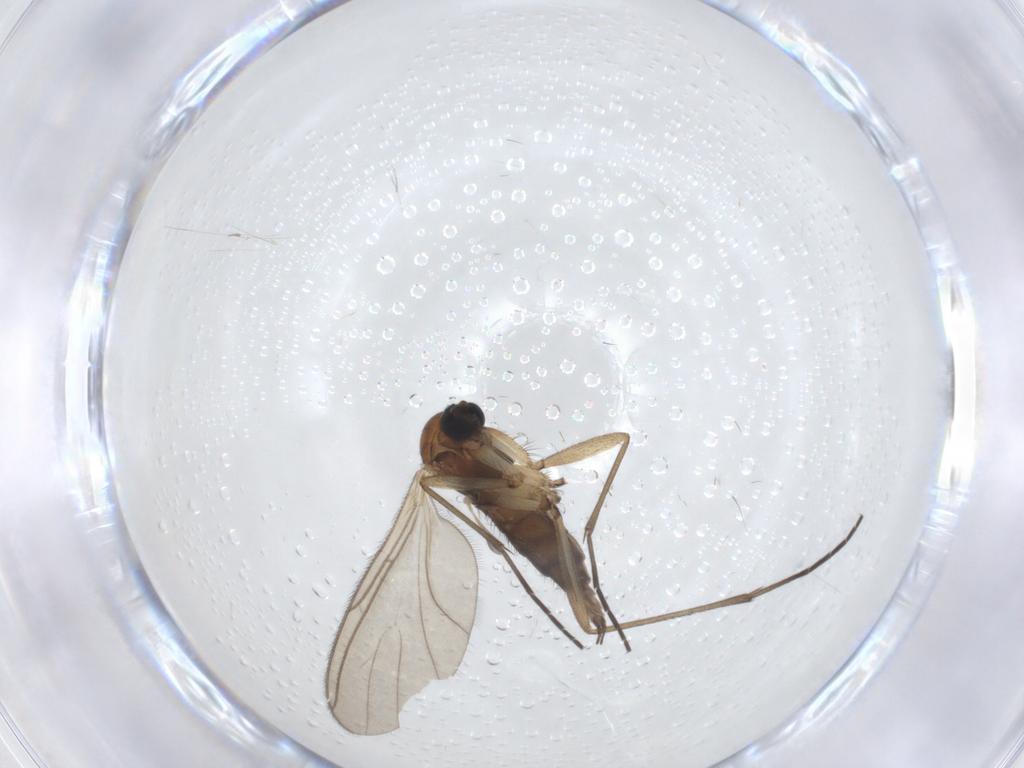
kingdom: Animalia
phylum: Arthropoda
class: Insecta
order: Diptera
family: Sciaridae
